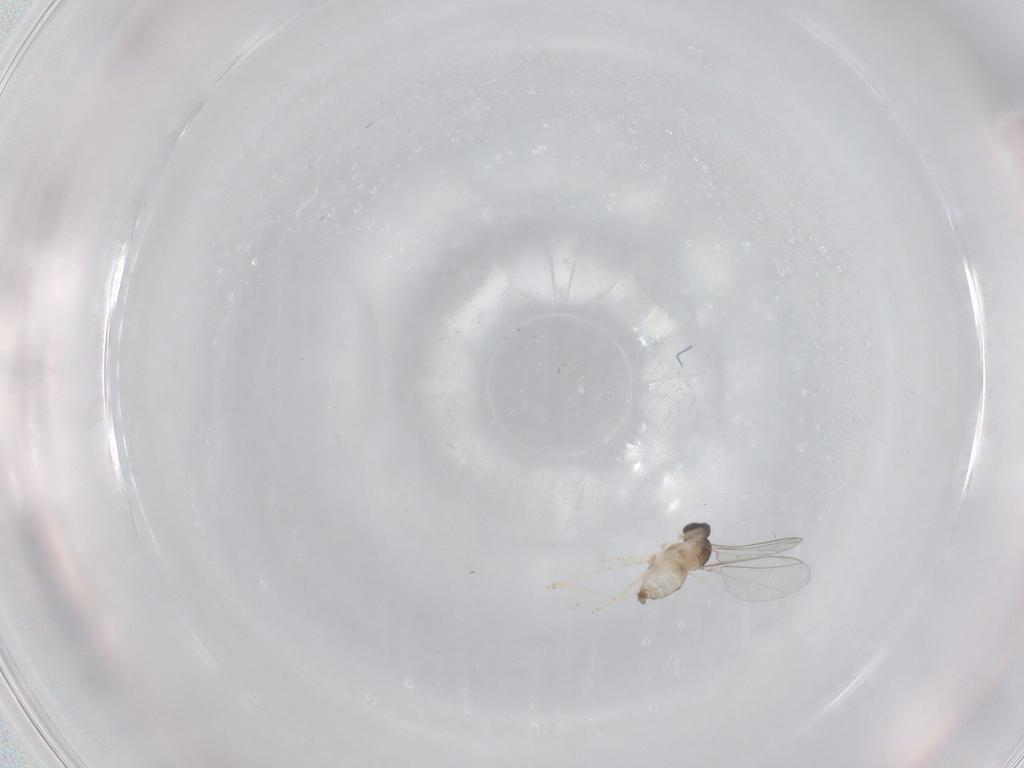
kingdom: Animalia
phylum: Arthropoda
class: Insecta
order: Diptera
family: Cecidomyiidae
